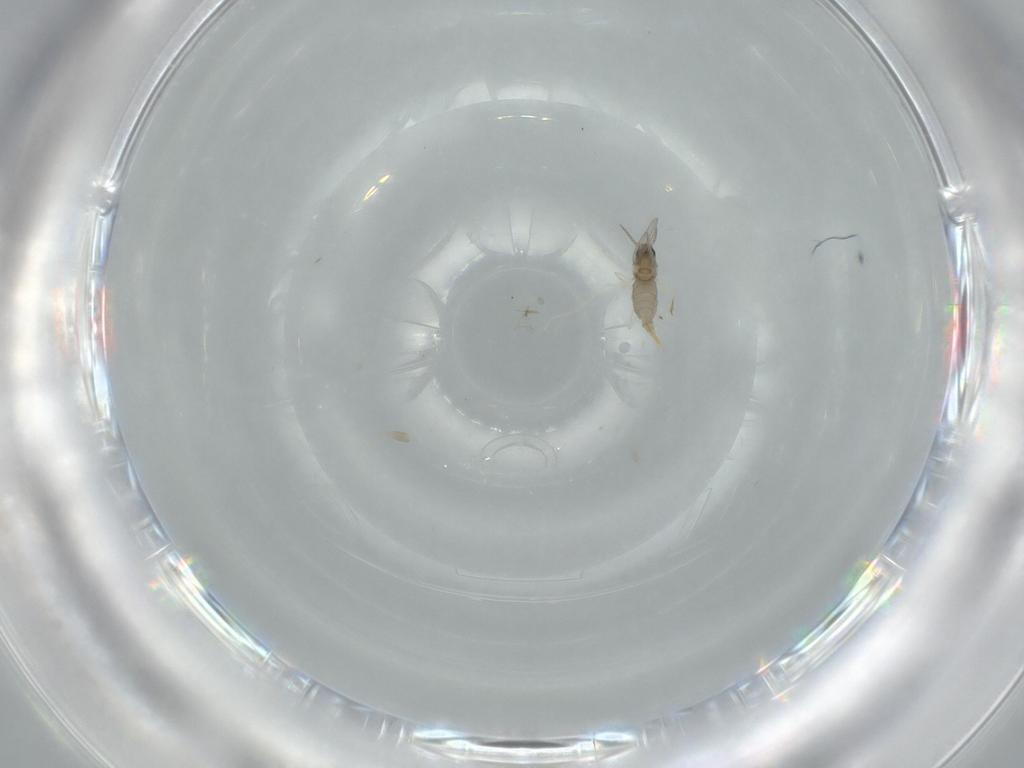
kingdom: Animalia
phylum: Arthropoda
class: Insecta
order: Diptera
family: Cecidomyiidae
